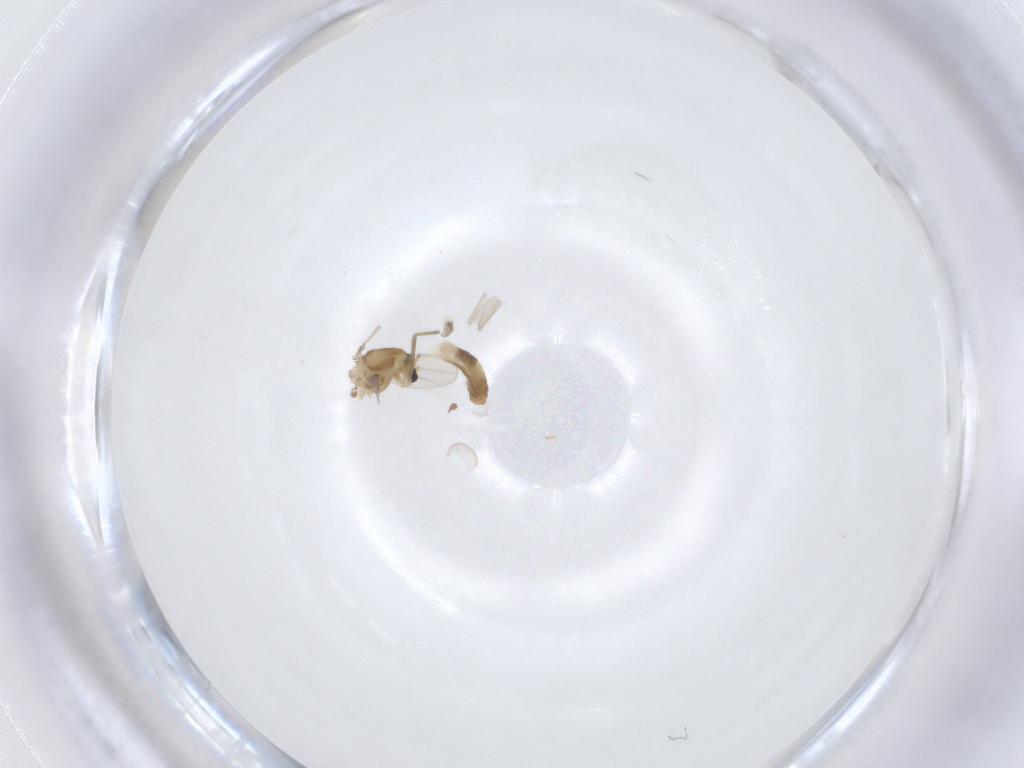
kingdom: Animalia
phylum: Arthropoda
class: Insecta
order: Diptera
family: Chironomidae
